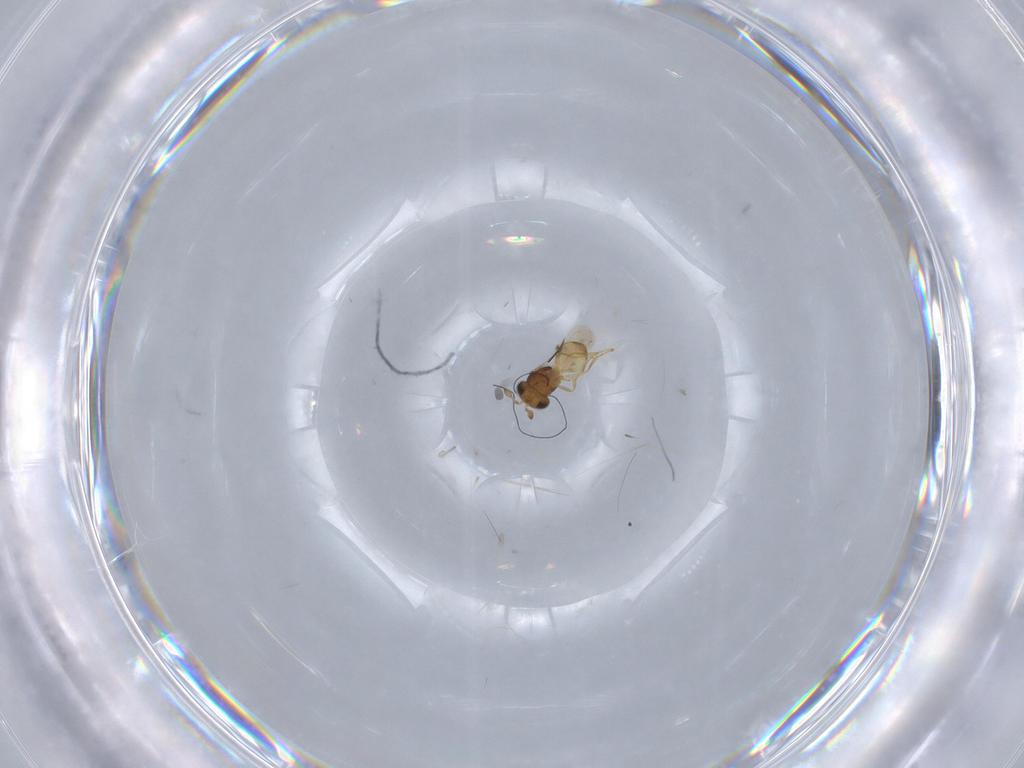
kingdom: Animalia
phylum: Arthropoda
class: Insecta
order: Hymenoptera
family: Scelionidae
